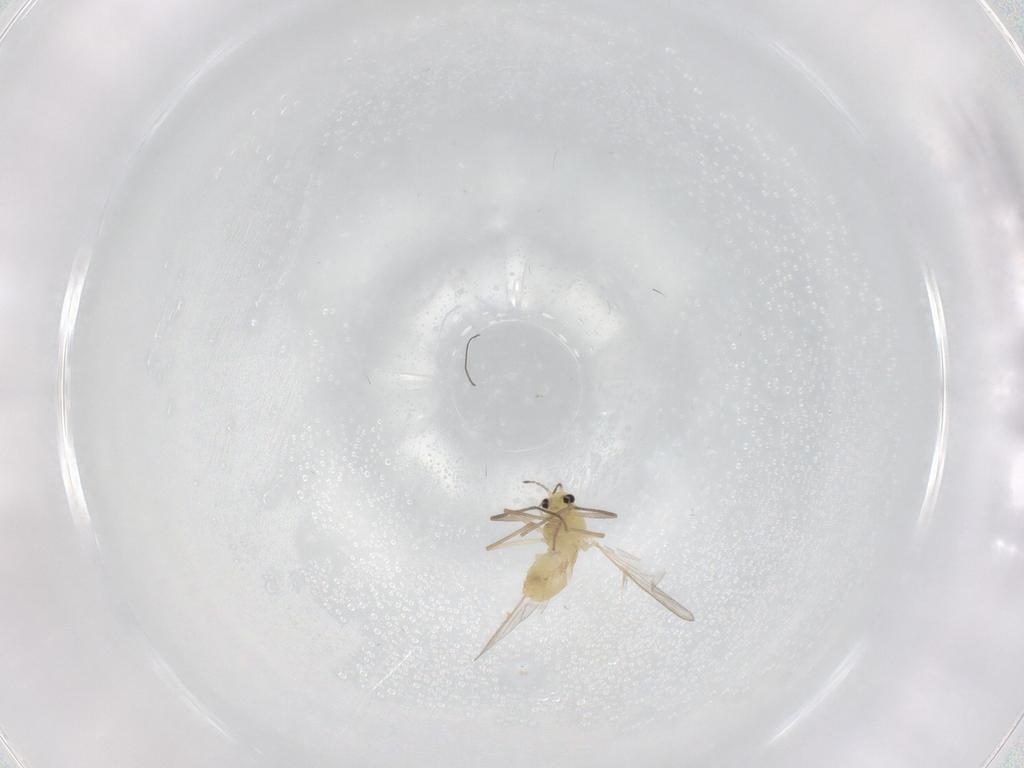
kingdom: Animalia
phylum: Arthropoda
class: Insecta
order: Diptera
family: Chironomidae
